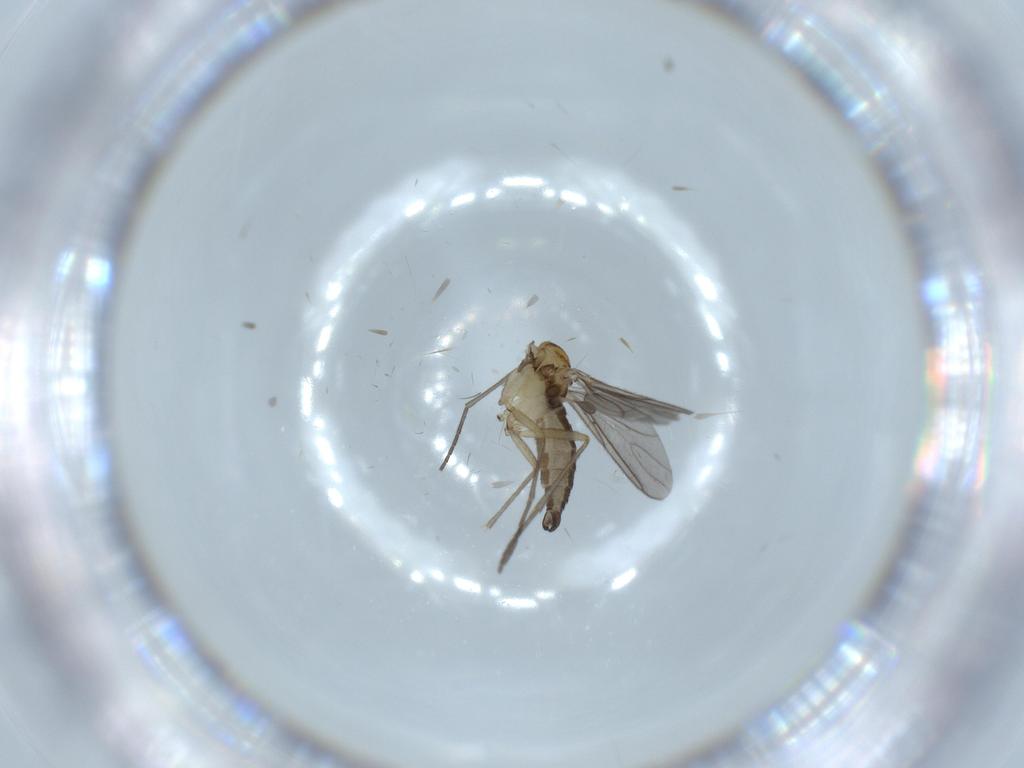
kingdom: Animalia
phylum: Arthropoda
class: Insecta
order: Diptera
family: Sciaridae
